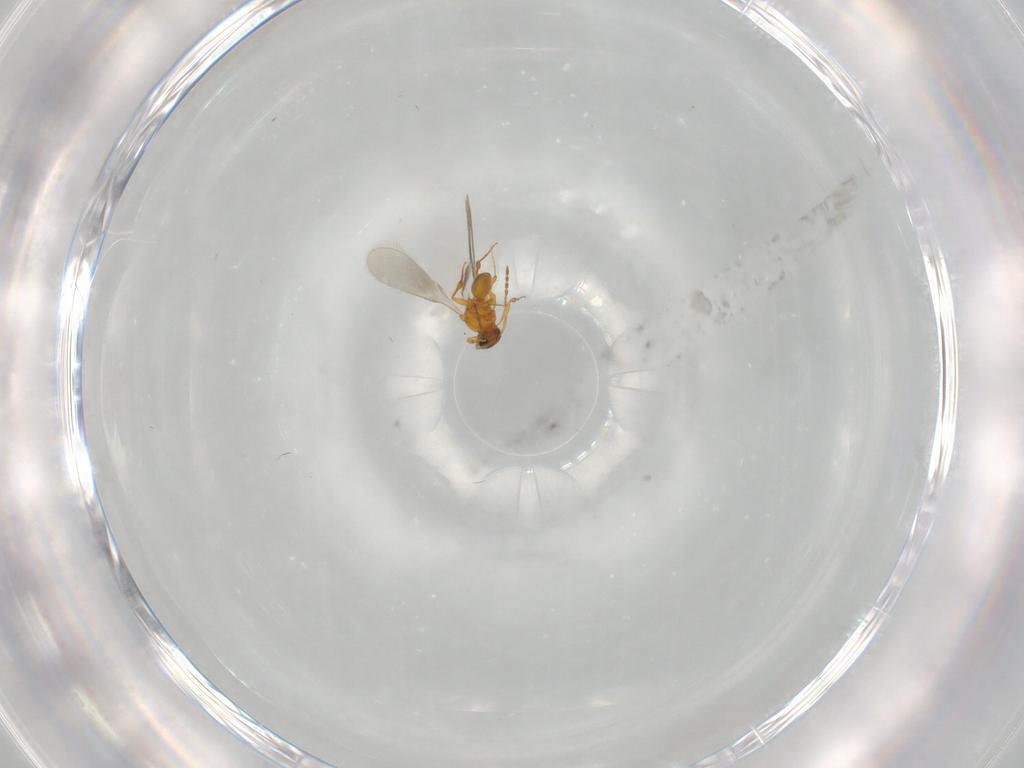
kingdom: Animalia
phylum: Arthropoda
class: Insecta
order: Hymenoptera
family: Platygastridae
